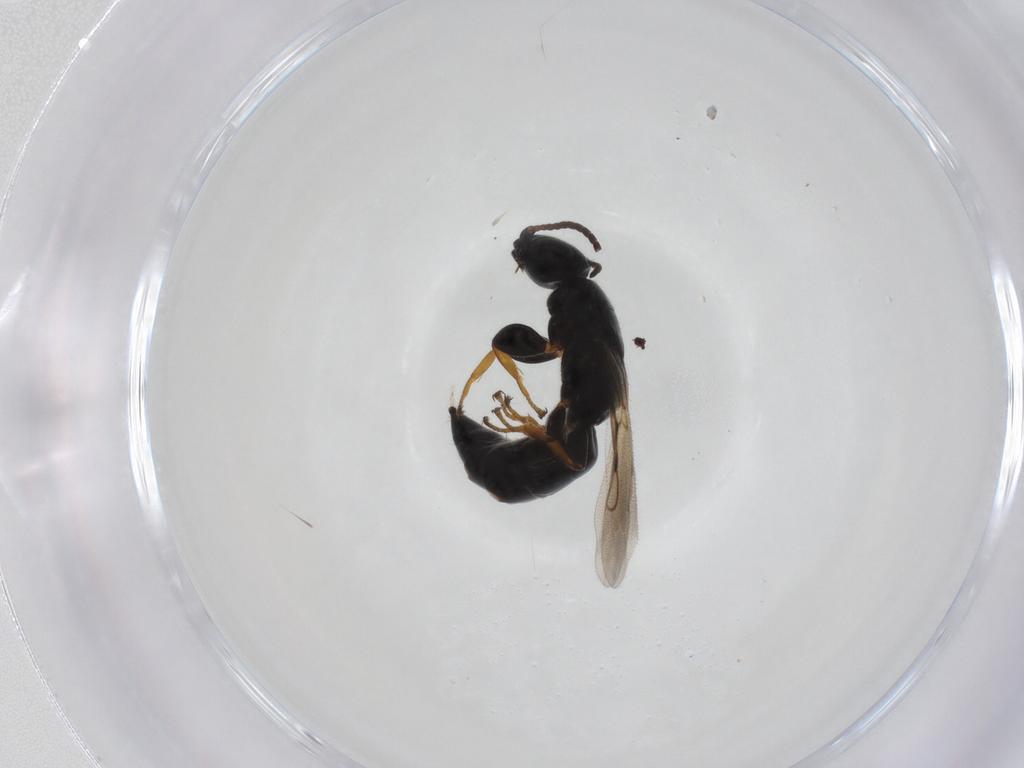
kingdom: Animalia
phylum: Arthropoda
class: Insecta
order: Hymenoptera
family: Bethylidae
